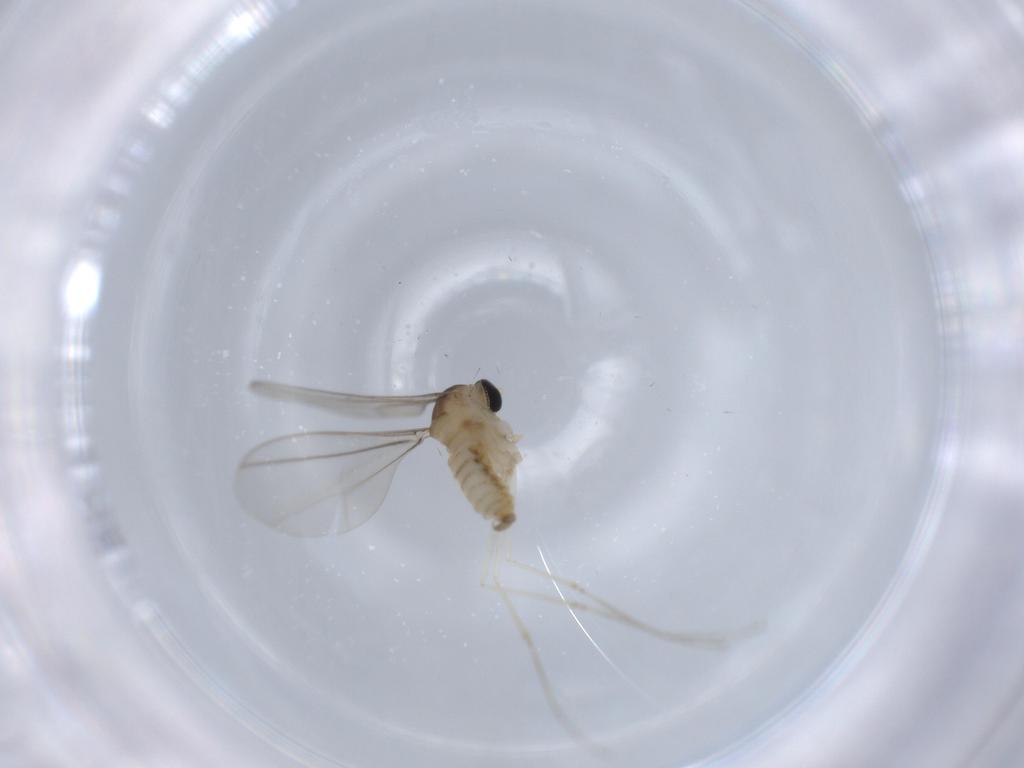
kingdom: Animalia
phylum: Arthropoda
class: Insecta
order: Diptera
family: Cecidomyiidae
